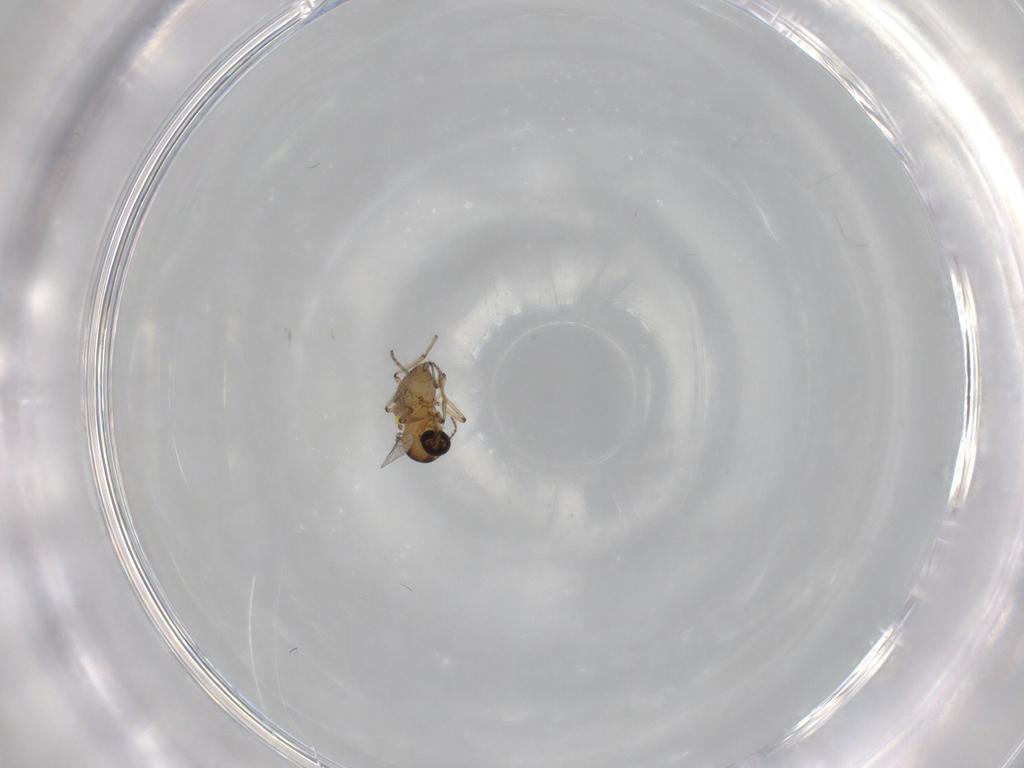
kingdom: Animalia
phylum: Arthropoda
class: Insecta
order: Diptera
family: Ceratopogonidae
